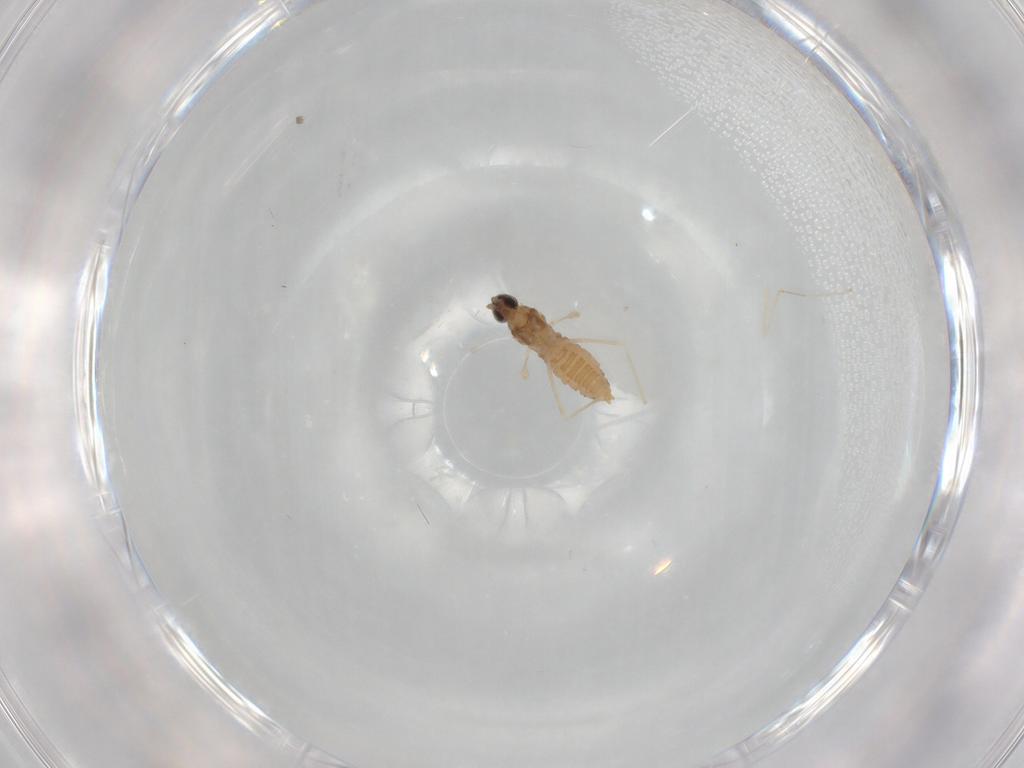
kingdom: Animalia
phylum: Arthropoda
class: Insecta
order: Diptera
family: Cecidomyiidae
